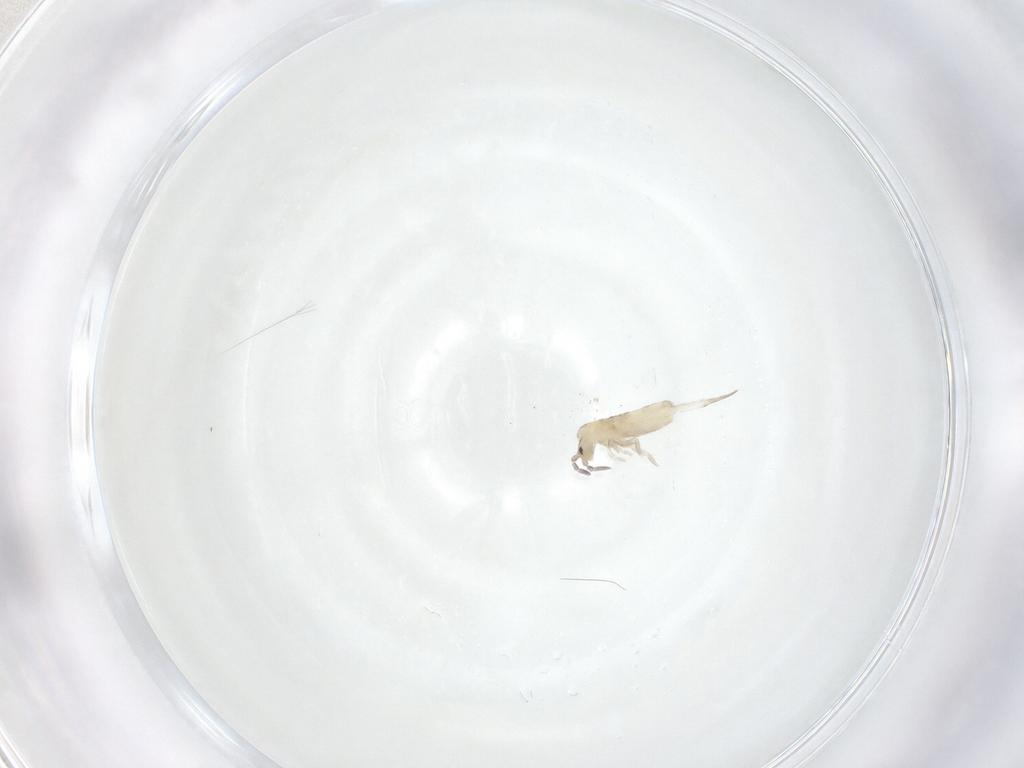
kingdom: Animalia
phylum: Arthropoda
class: Collembola
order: Entomobryomorpha
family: Entomobryidae
